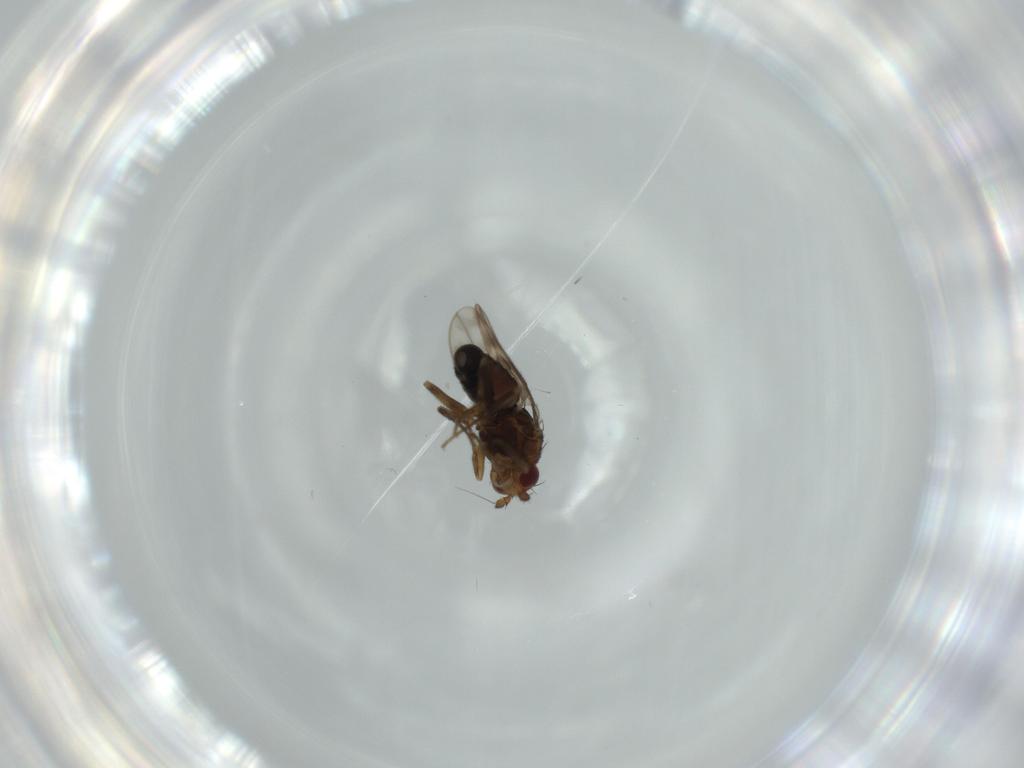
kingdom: Animalia
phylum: Arthropoda
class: Insecta
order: Diptera
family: Sphaeroceridae
